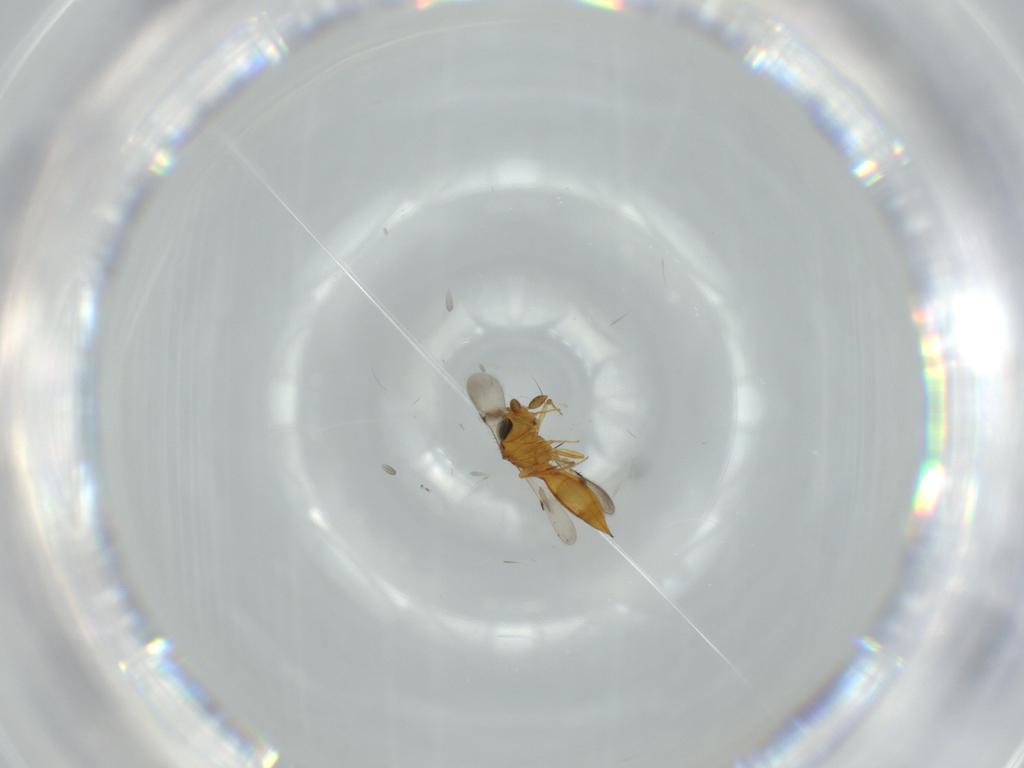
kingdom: Animalia
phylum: Arthropoda
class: Insecta
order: Hymenoptera
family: Scelionidae
